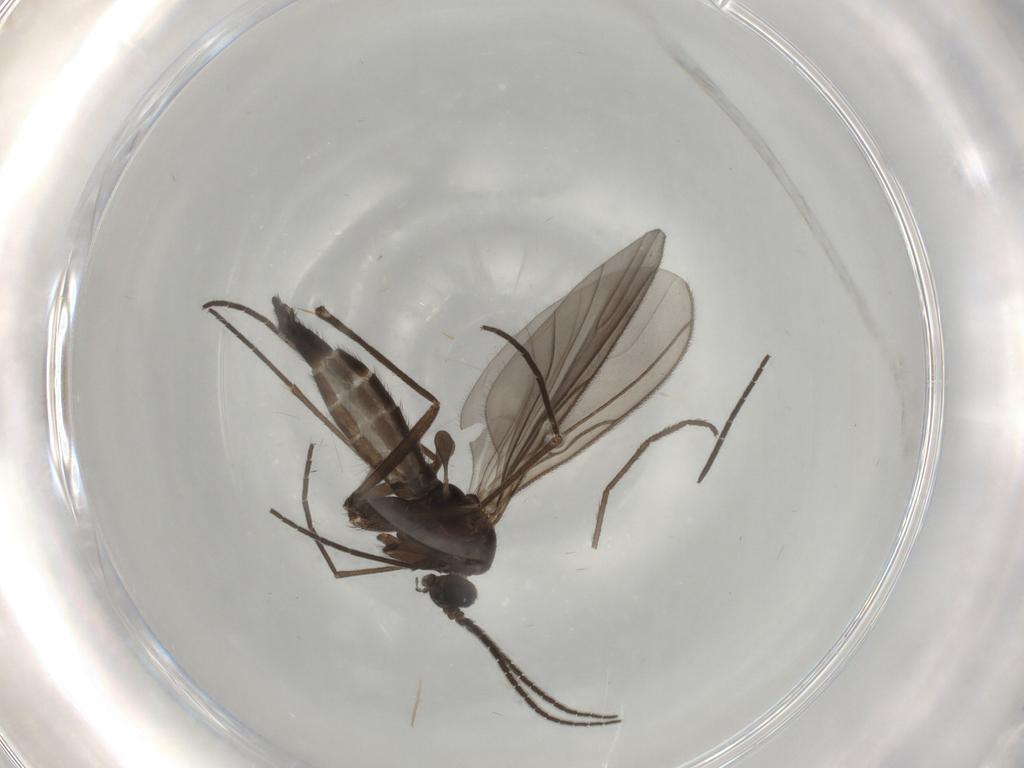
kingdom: Animalia
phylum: Arthropoda
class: Insecta
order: Diptera
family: Sciaridae
